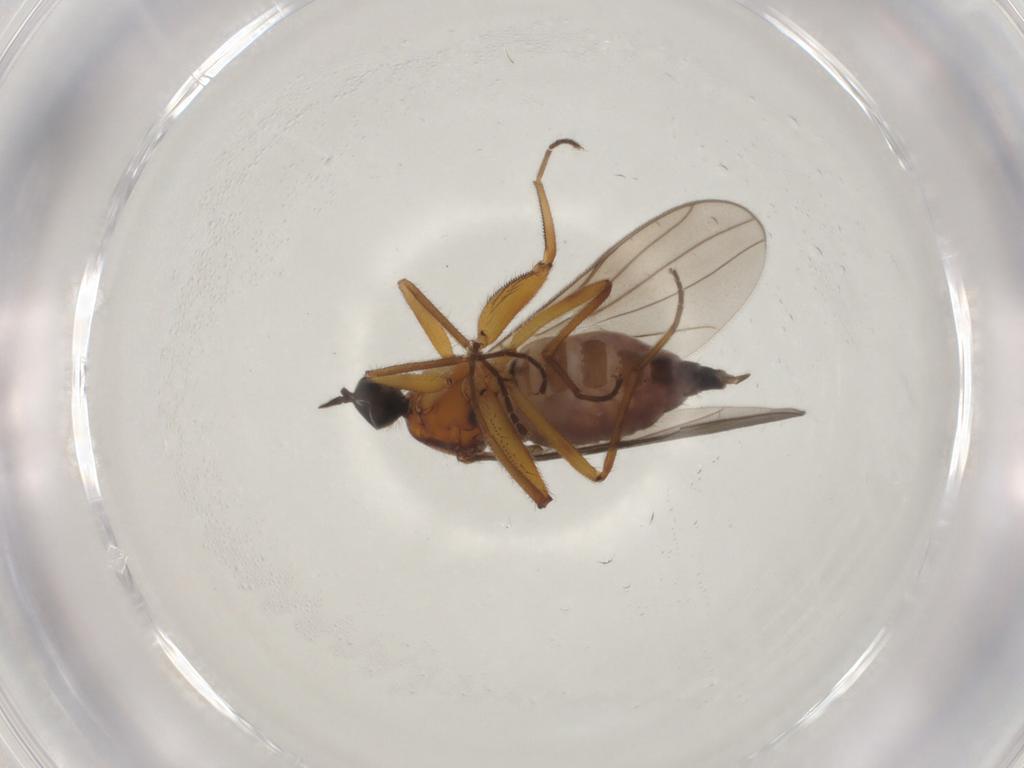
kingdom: Animalia
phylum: Arthropoda
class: Insecta
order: Diptera
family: Hybotidae
